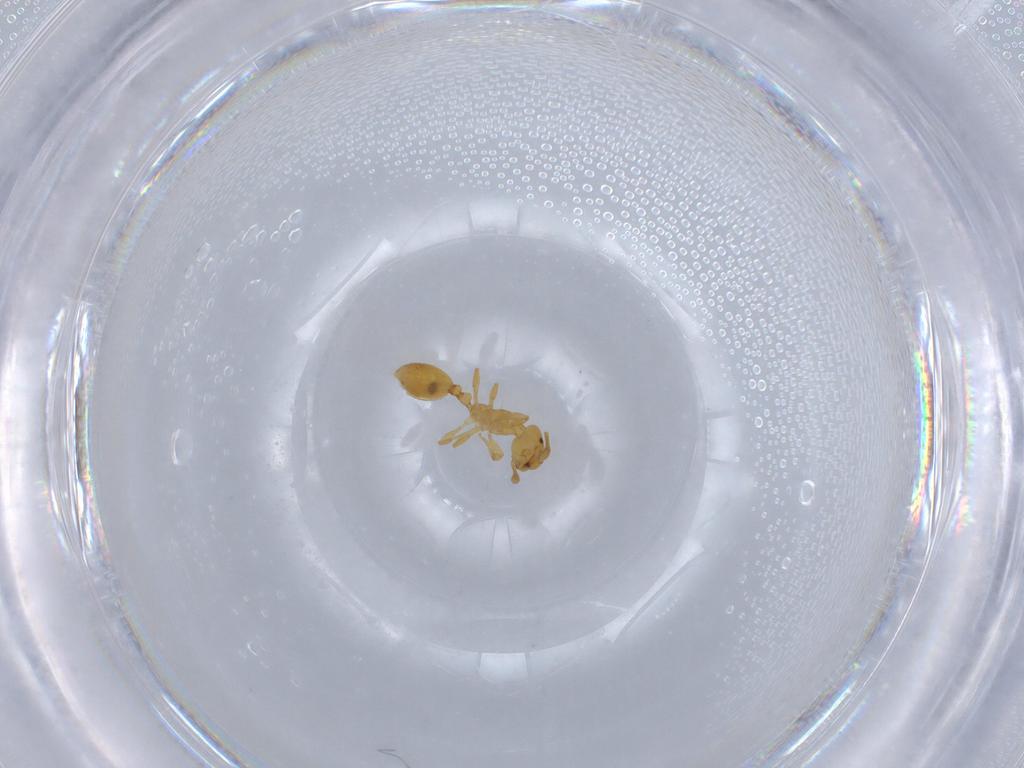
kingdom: Animalia
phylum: Arthropoda
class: Insecta
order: Hymenoptera
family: Formicidae
